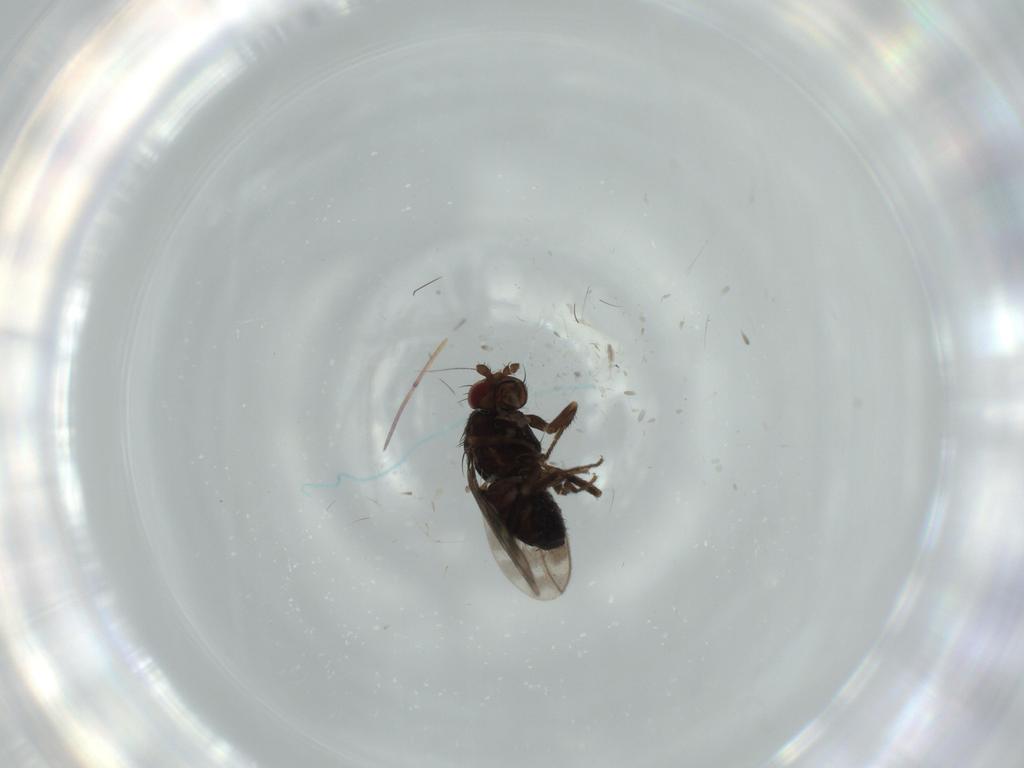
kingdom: Animalia
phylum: Arthropoda
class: Insecta
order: Diptera
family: Sphaeroceridae
